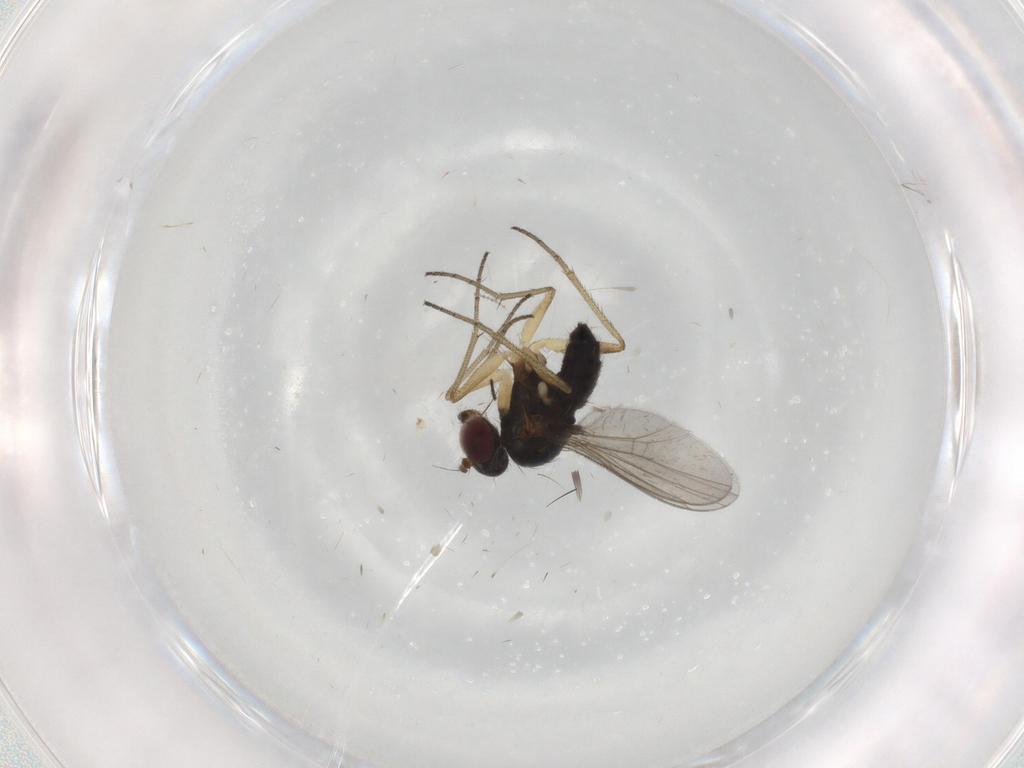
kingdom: Animalia
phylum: Arthropoda
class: Insecta
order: Diptera
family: Dolichopodidae
